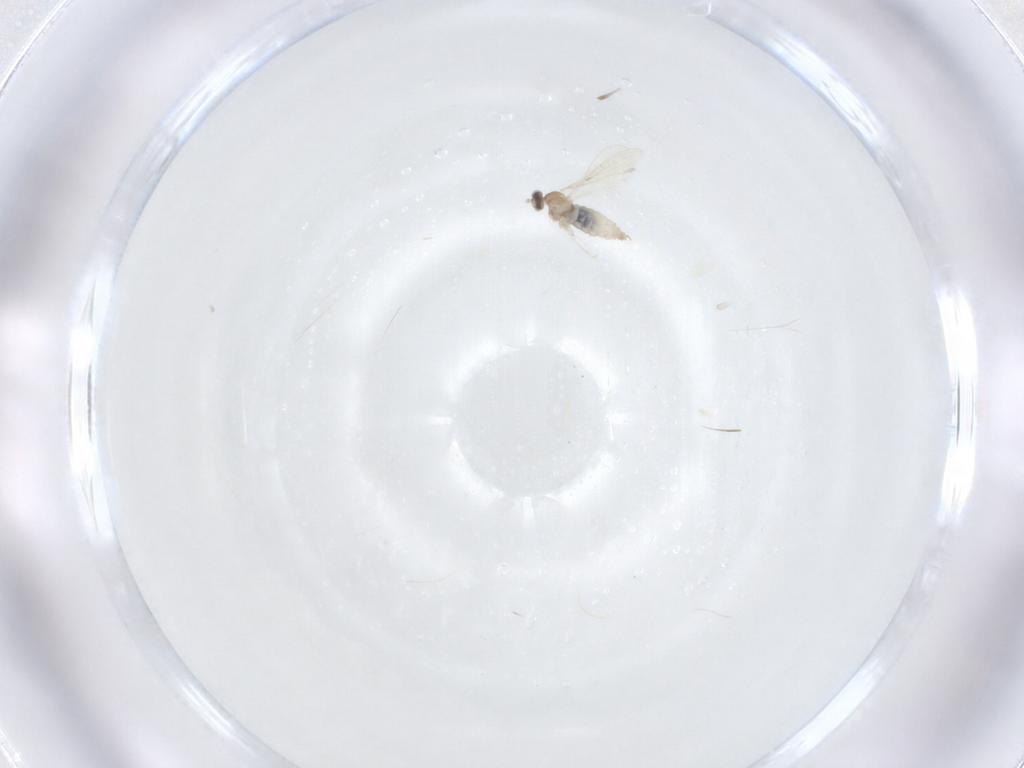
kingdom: Animalia
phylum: Arthropoda
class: Insecta
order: Diptera
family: Cecidomyiidae
